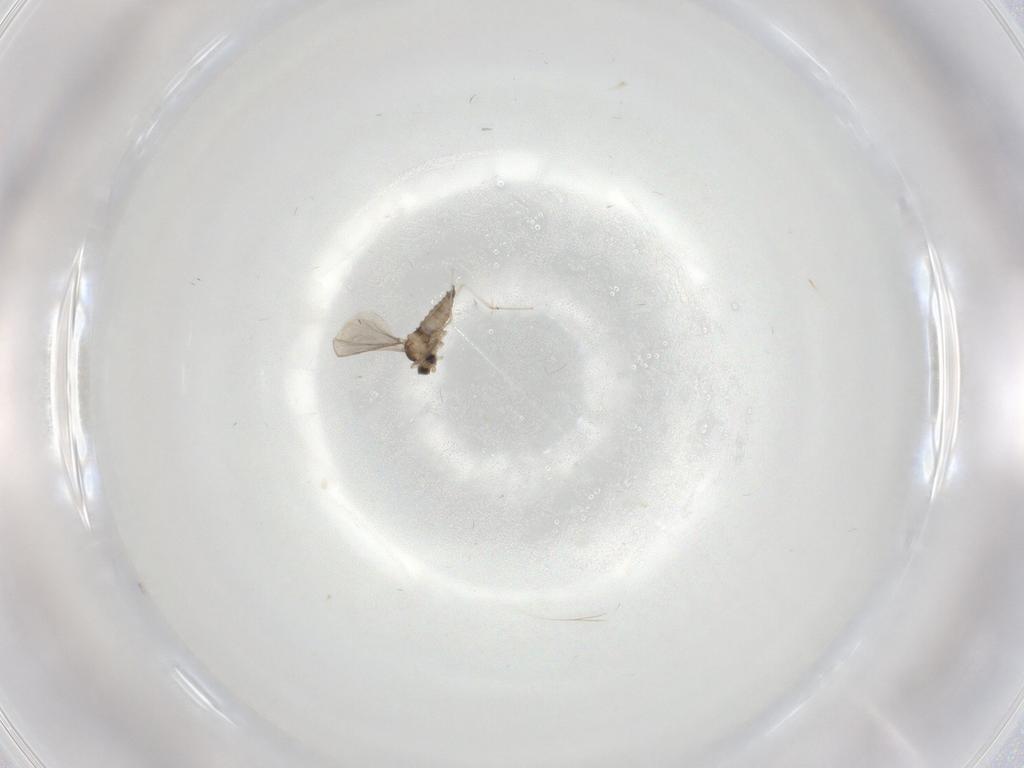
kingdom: Animalia
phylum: Arthropoda
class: Insecta
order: Diptera
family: Cecidomyiidae
